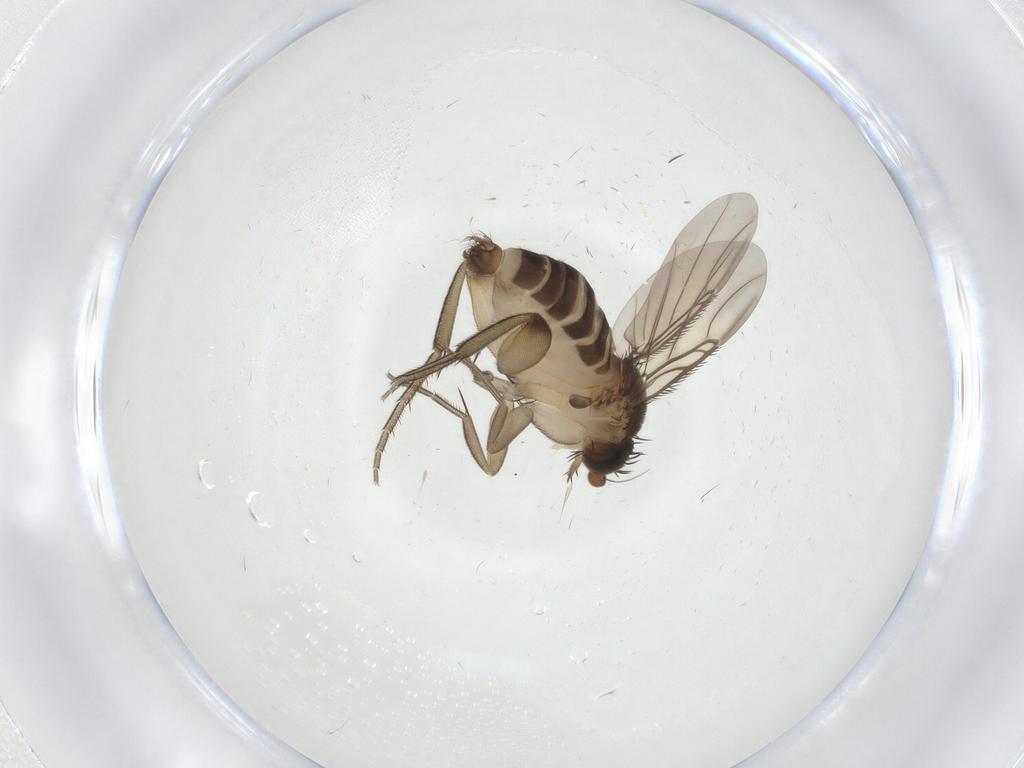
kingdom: Animalia
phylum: Arthropoda
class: Insecta
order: Diptera
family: Phoridae
